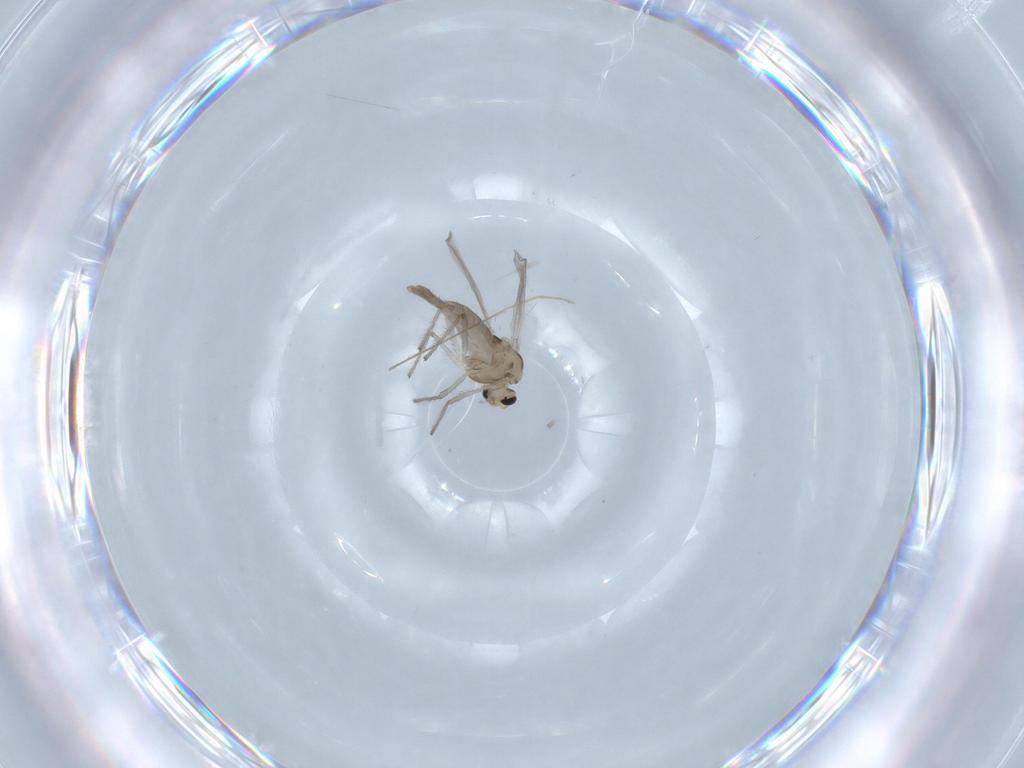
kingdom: Animalia
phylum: Arthropoda
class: Insecta
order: Diptera
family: Chironomidae
